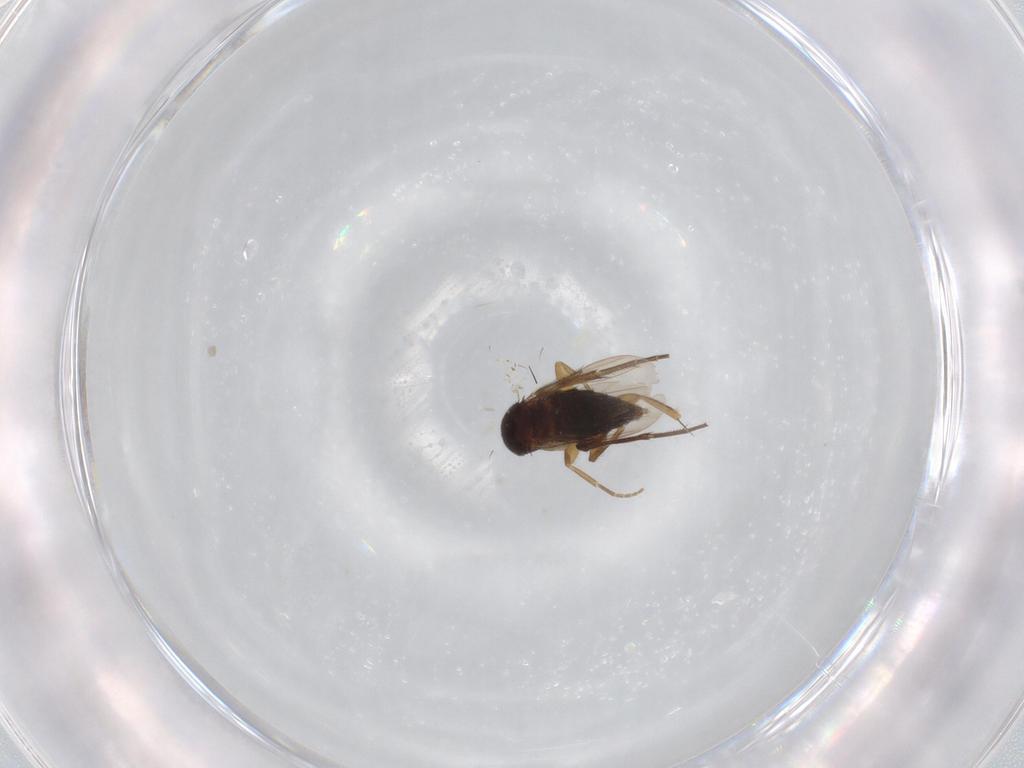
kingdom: Animalia
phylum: Arthropoda
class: Insecta
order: Diptera
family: Phoridae
